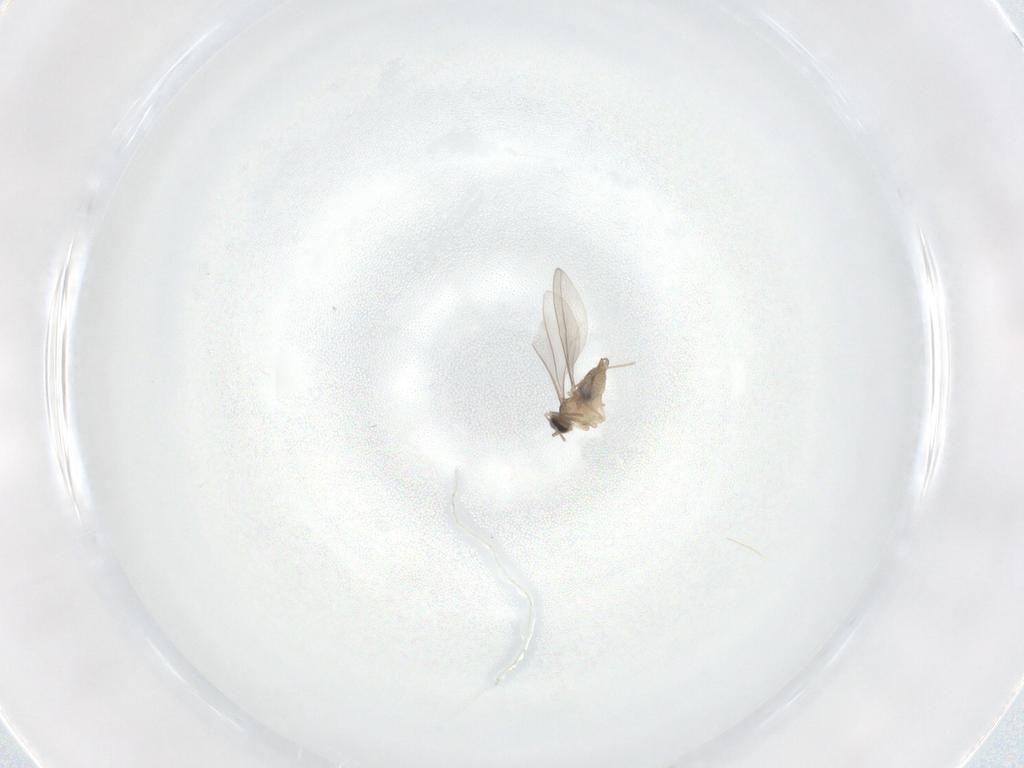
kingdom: Animalia
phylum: Arthropoda
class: Insecta
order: Diptera
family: Cecidomyiidae
